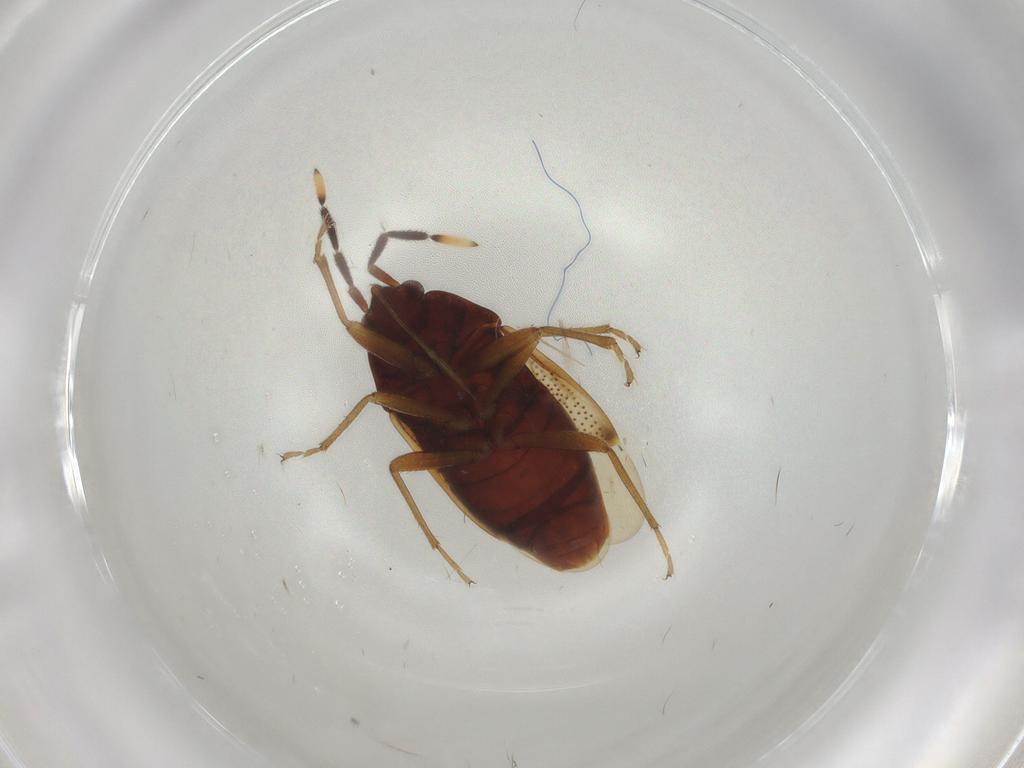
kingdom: Animalia
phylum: Arthropoda
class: Insecta
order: Hemiptera
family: Rhyparochromidae
